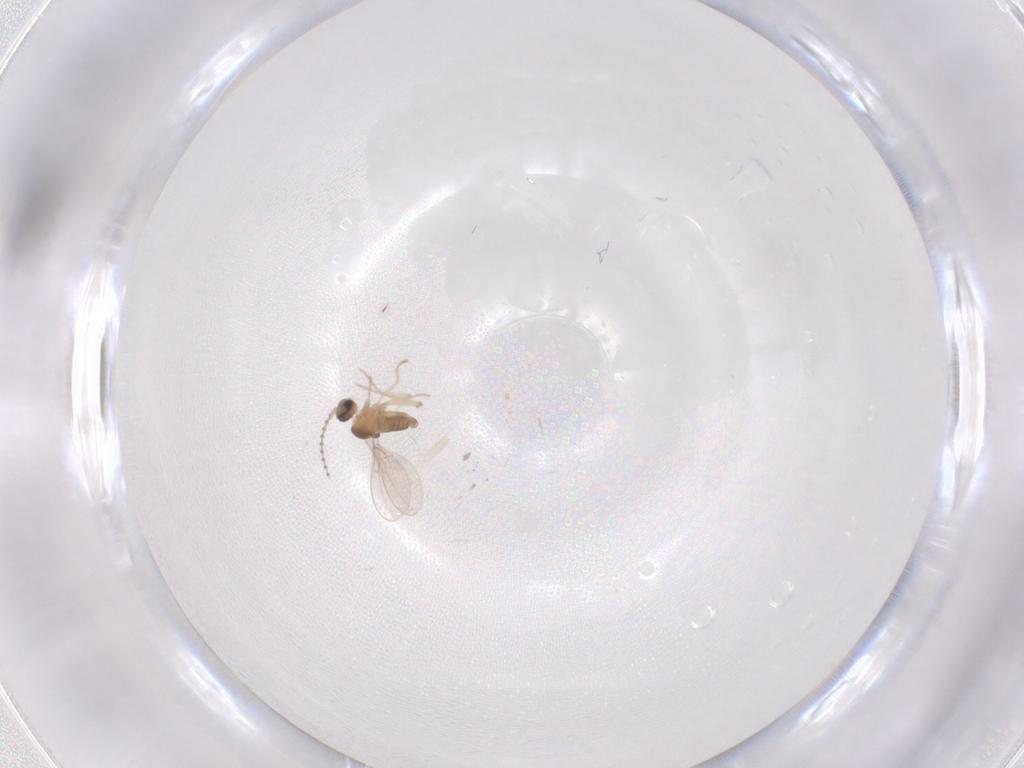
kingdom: Animalia
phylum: Arthropoda
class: Insecta
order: Diptera
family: Cecidomyiidae
